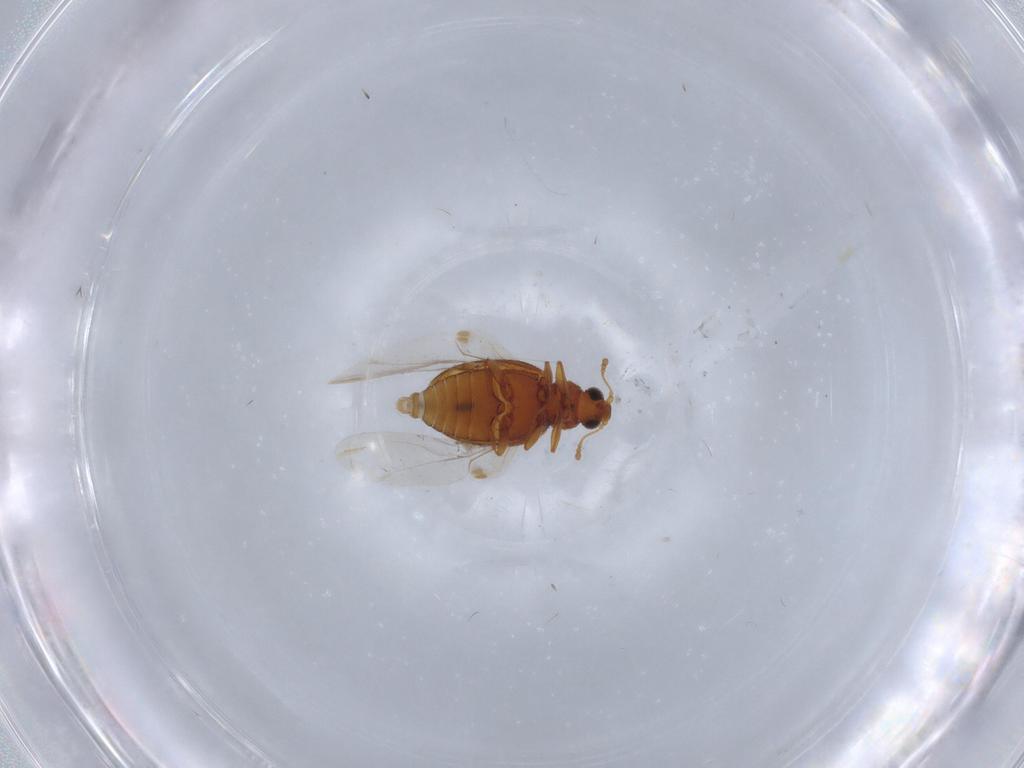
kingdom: Animalia
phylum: Arthropoda
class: Insecta
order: Coleoptera
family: Latridiidae
